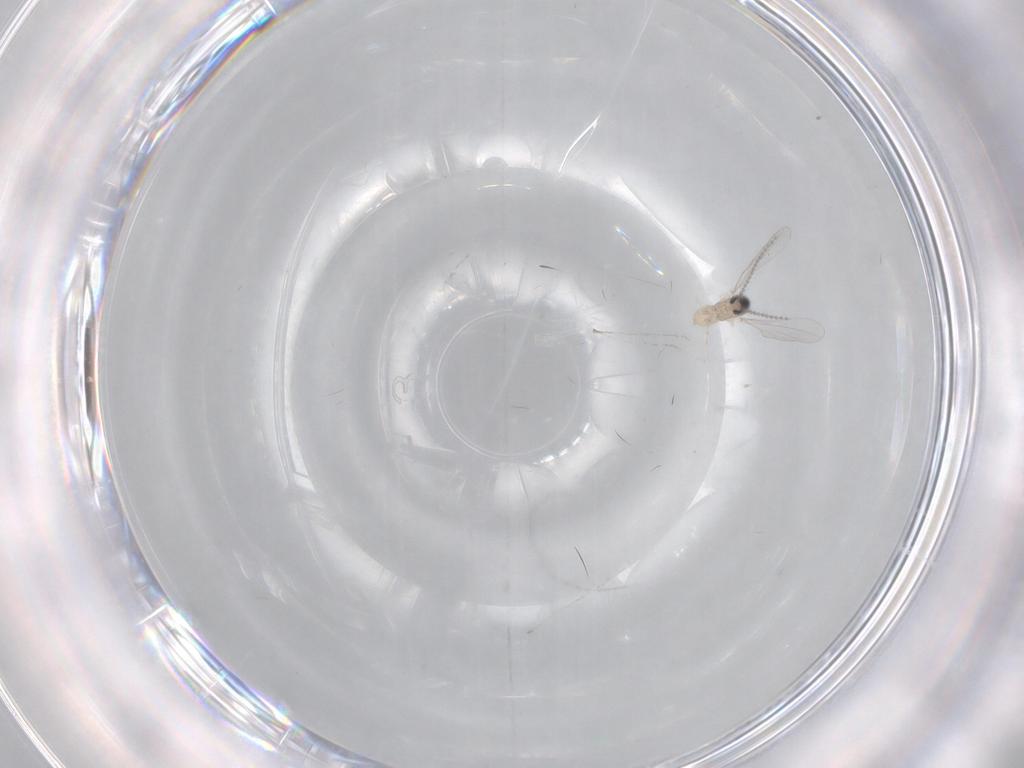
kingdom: Animalia
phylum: Arthropoda
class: Insecta
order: Diptera
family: Cecidomyiidae
